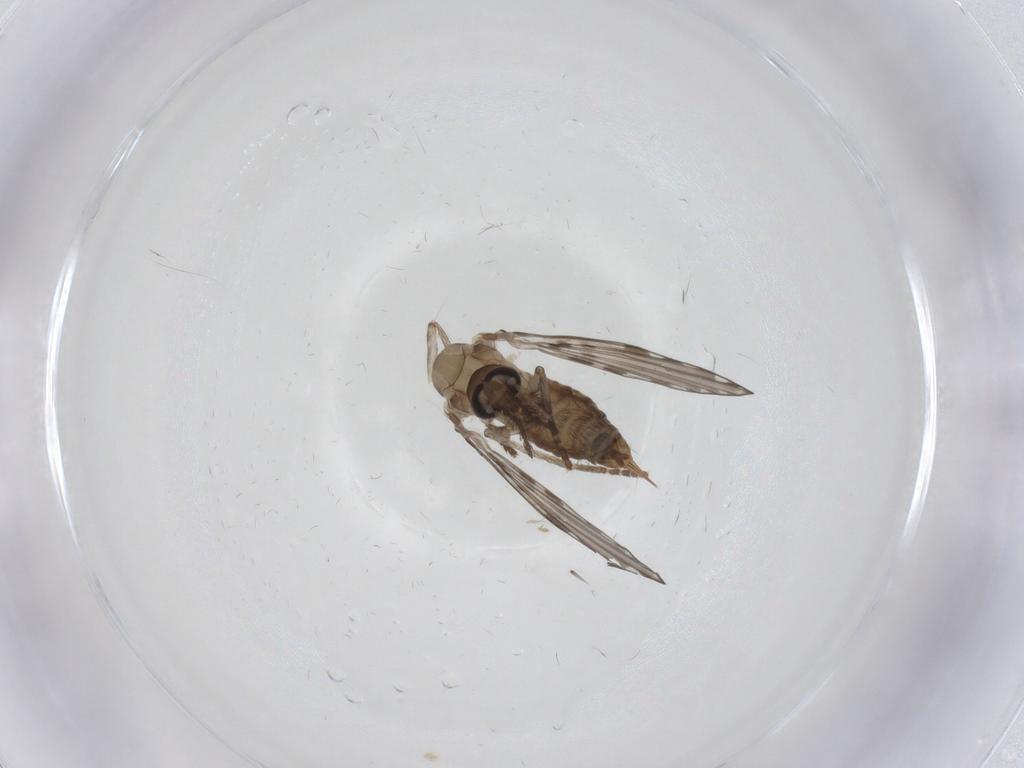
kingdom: Animalia
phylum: Arthropoda
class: Insecta
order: Diptera
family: Psychodidae
